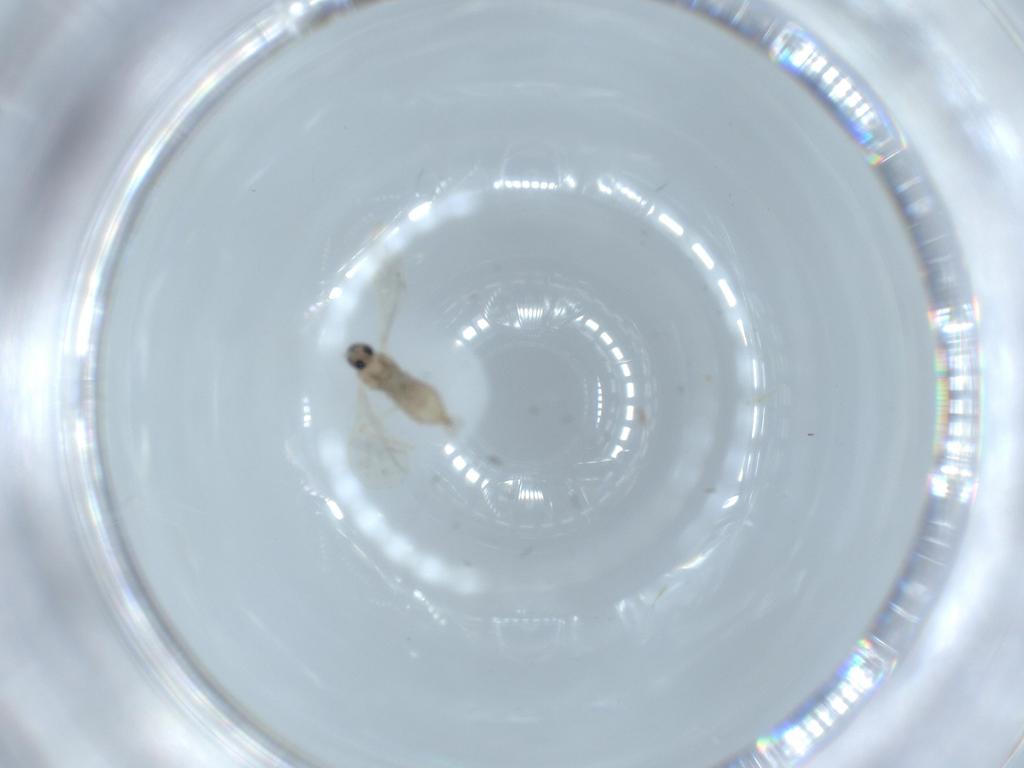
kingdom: Animalia
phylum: Arthropoda
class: Insecta
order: Diptera
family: Cecidomyiidae
